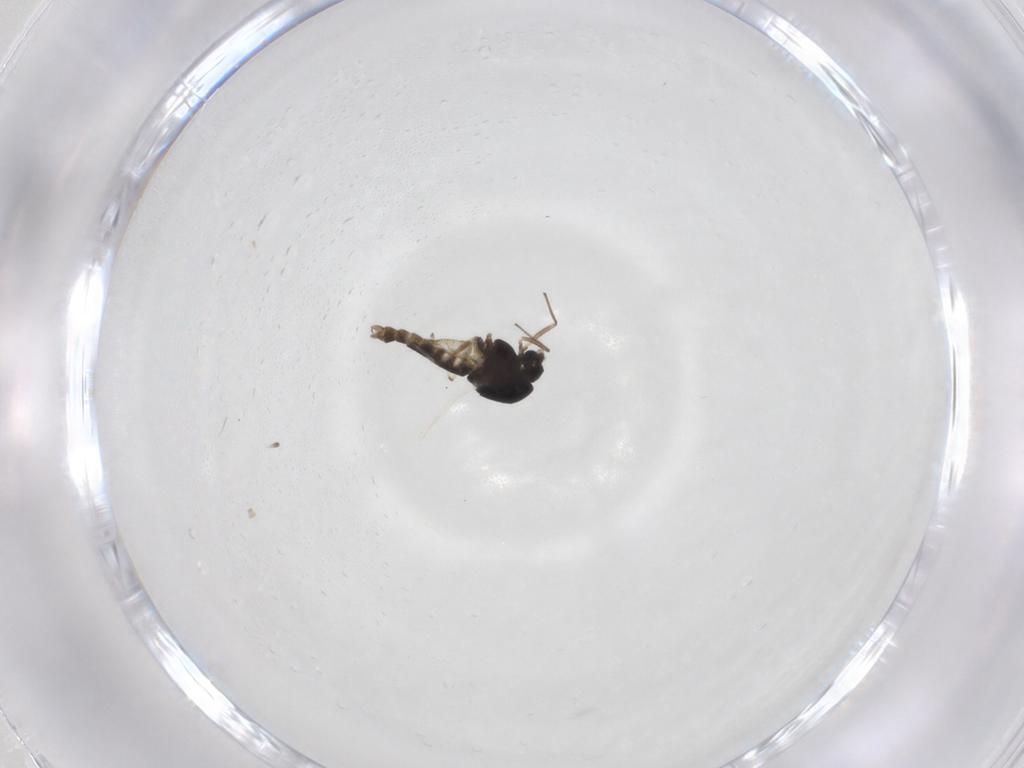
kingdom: Animalia
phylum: Arthropoda
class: Insecta
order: Diptera
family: Chironomidae
